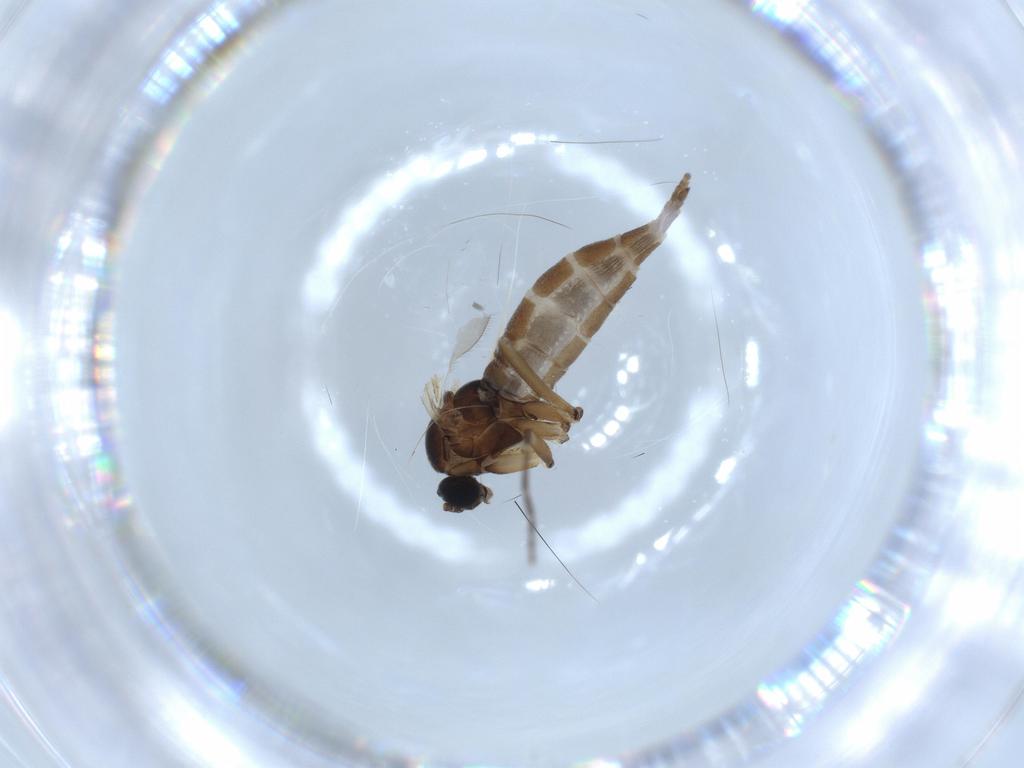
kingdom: Animalia
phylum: Arthropoda
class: Insecta
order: Diptera
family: Sciaridae
